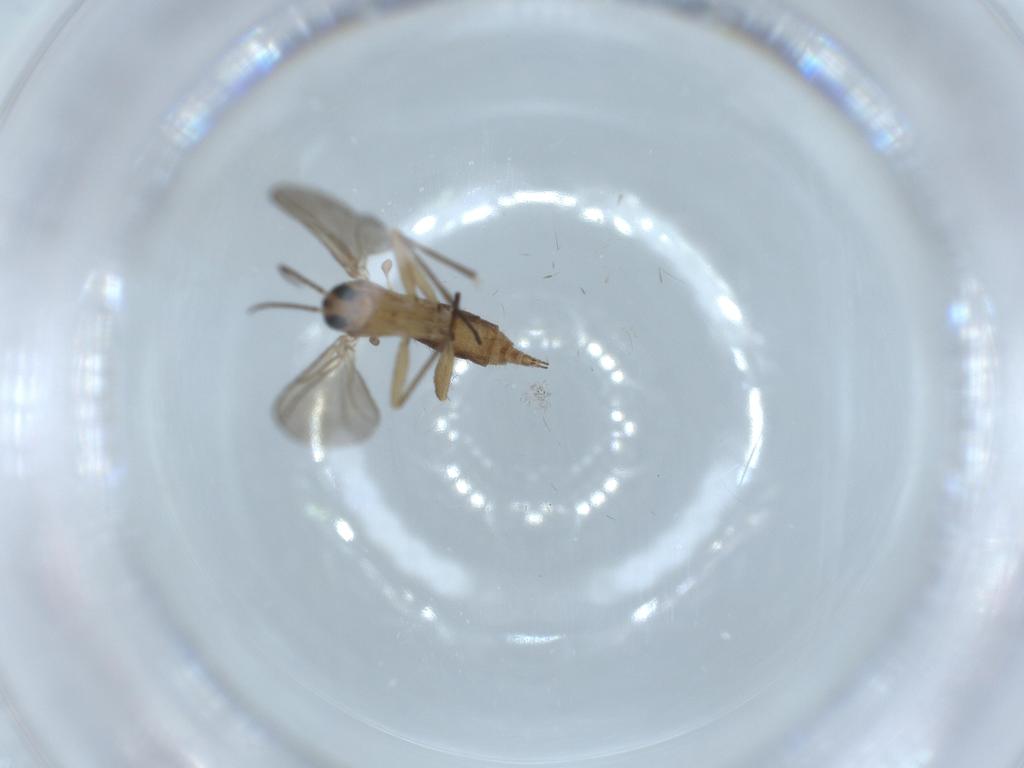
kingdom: Animalia
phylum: Arthropoda
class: Insecta
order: Diptera
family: Sciaridae
